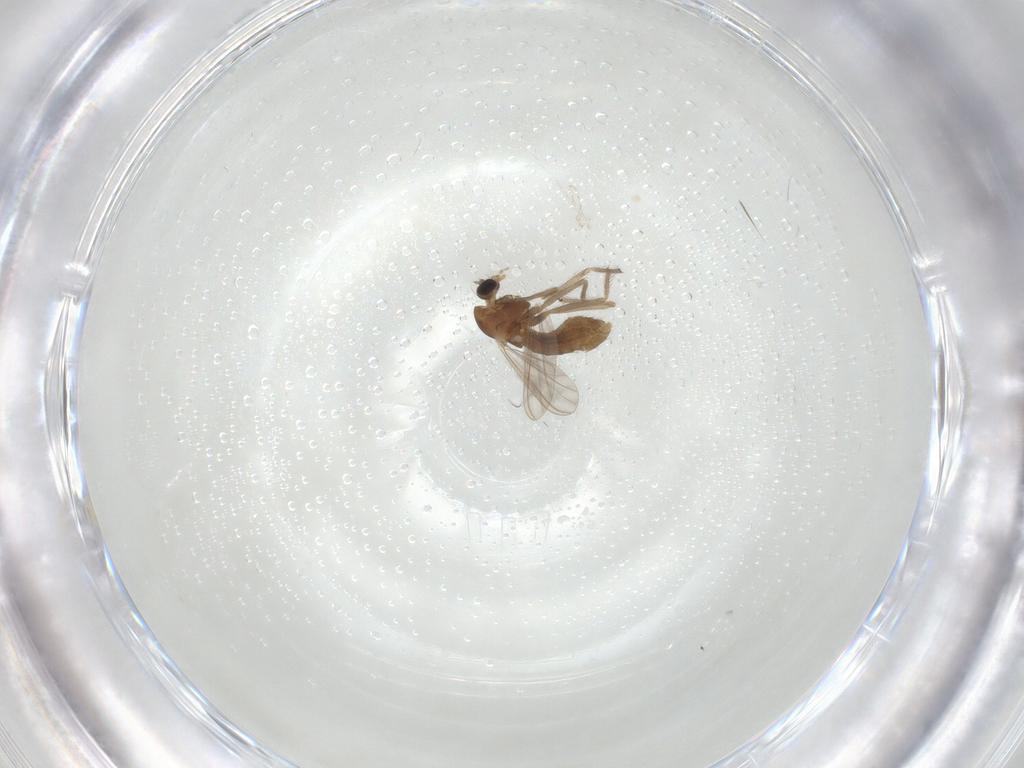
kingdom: Animalia
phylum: Arthropoda
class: Insecta
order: Diptera
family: Chironomidae
